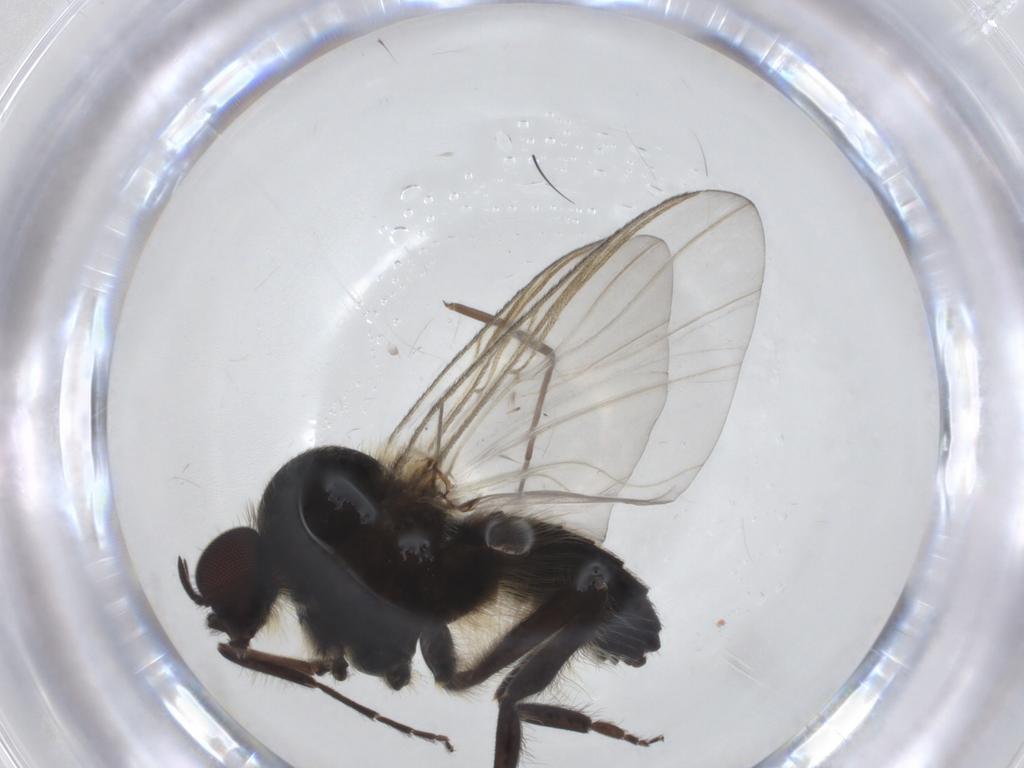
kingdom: Animalia
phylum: Arthropoda
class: Insecta
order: Diptera
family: Chironomidae
